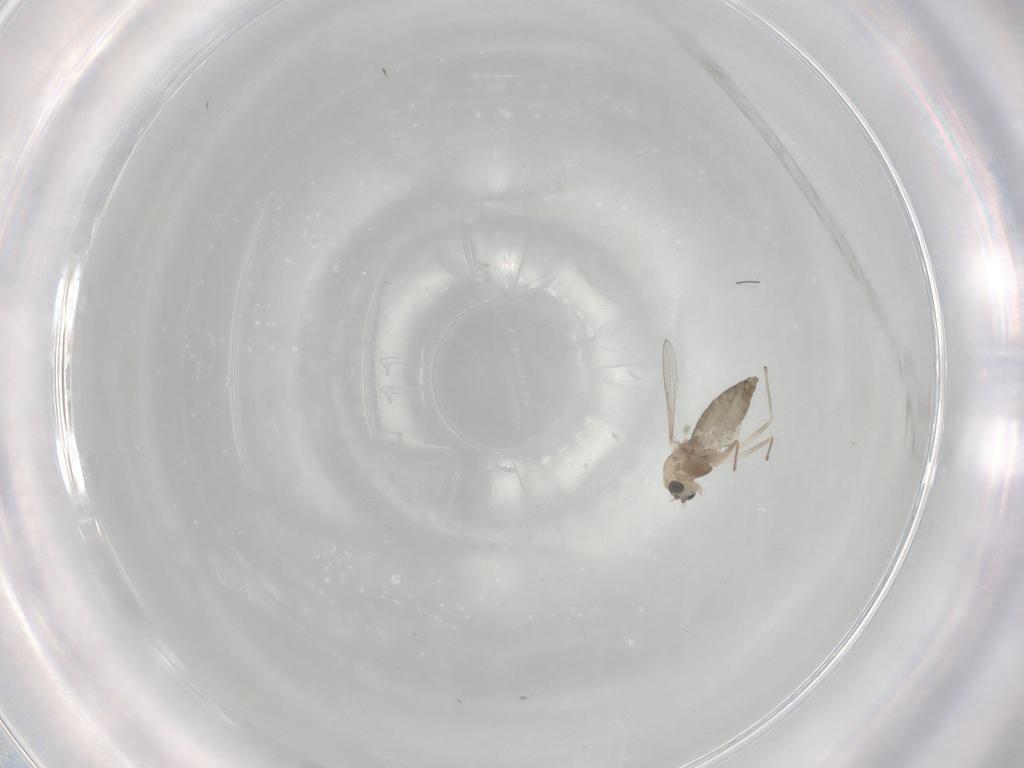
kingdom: Animalia
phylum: Arthropoda
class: Insecta
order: Diptera
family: Chironomidae
